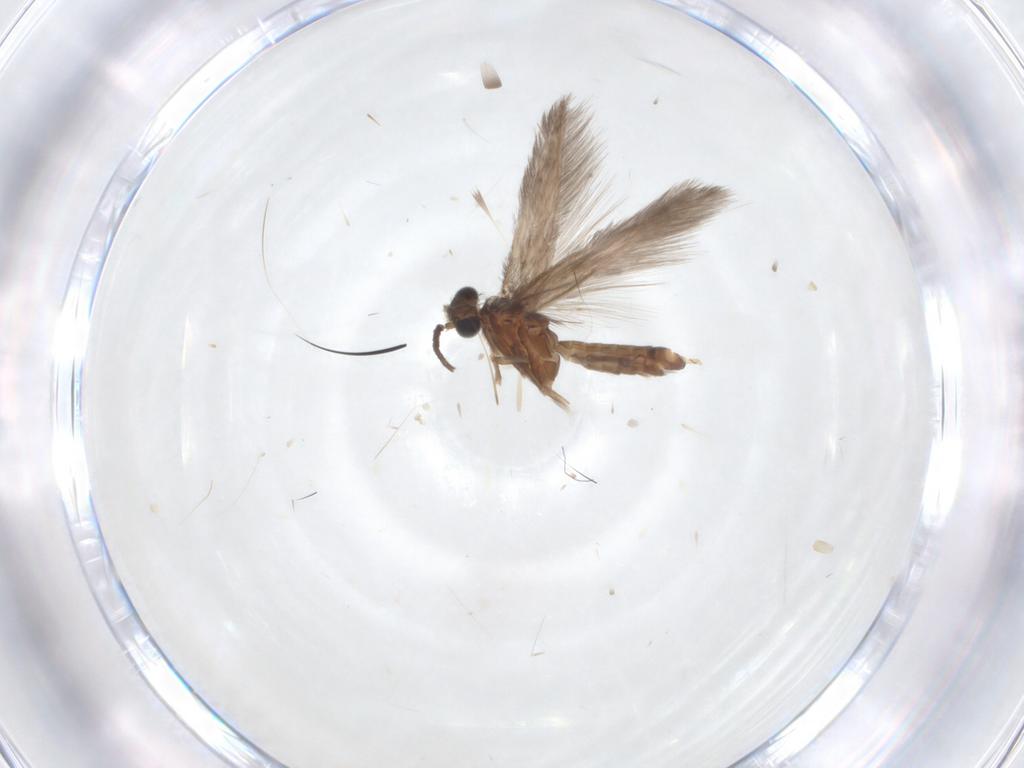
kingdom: Animalia
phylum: Arthropoda
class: Insecta
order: Trichoptera
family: Hydroptilidae
